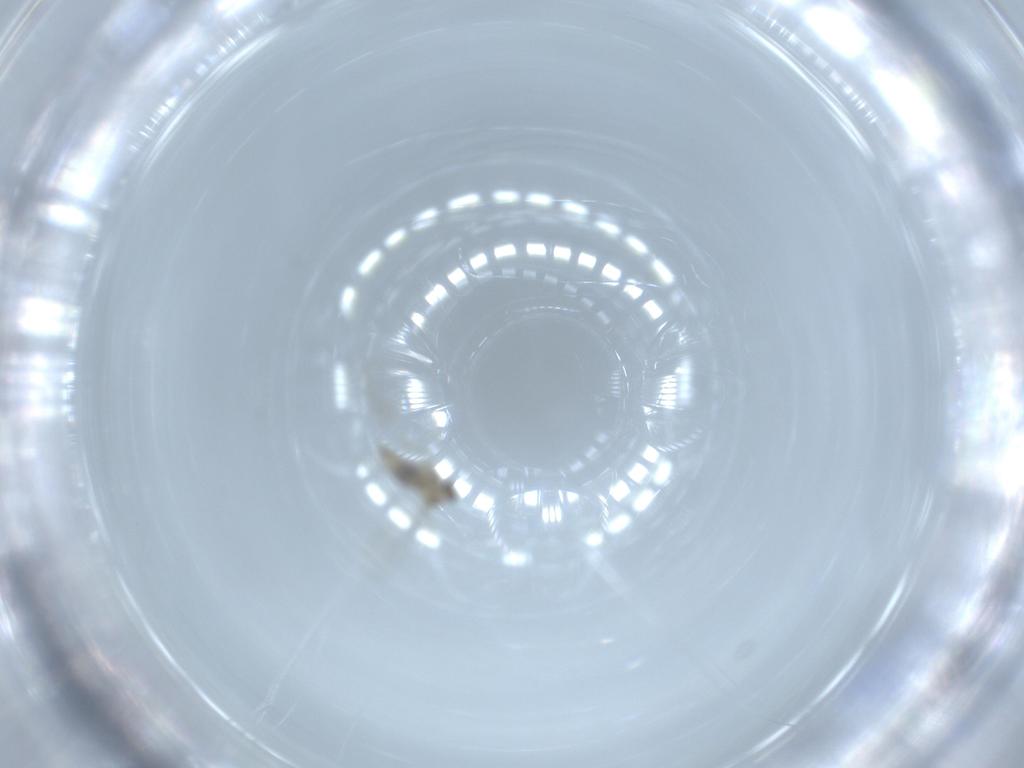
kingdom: Animalia
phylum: Arthropoda
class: Insecta
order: Diptera
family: Cecidomyiidae
